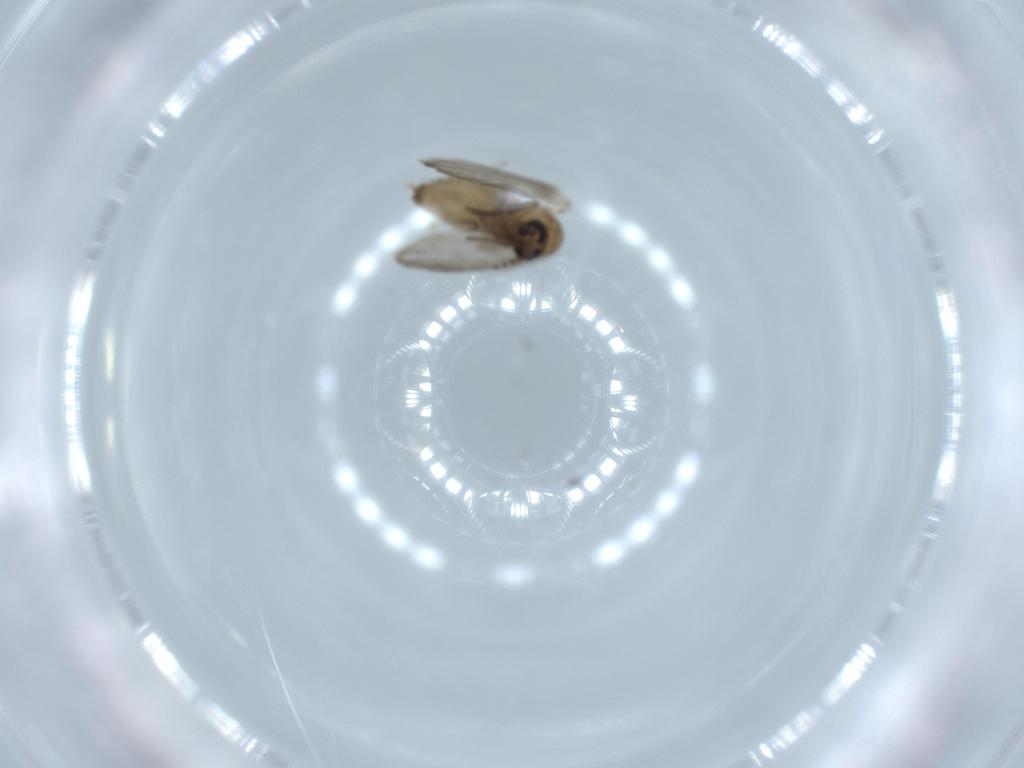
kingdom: Animalia
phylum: Arthropoda
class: Insecta
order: Diptera
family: Psychodidae
